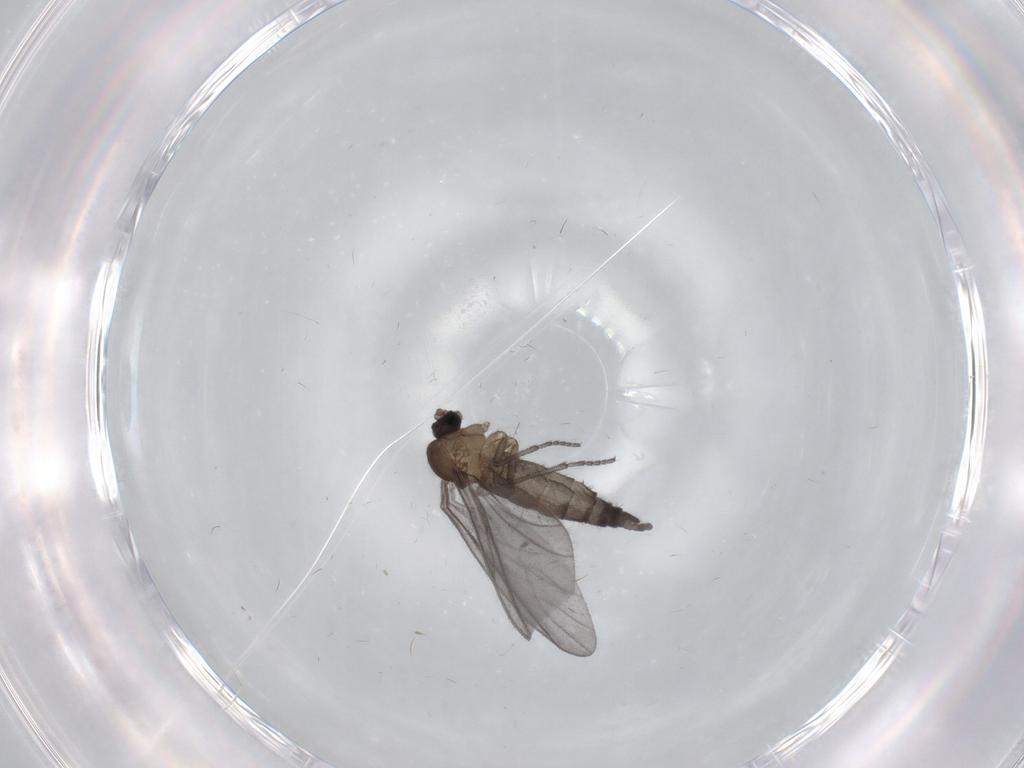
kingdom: Animalia
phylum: Arthropoda
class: Insecta
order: Diptera
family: Sciaridae
